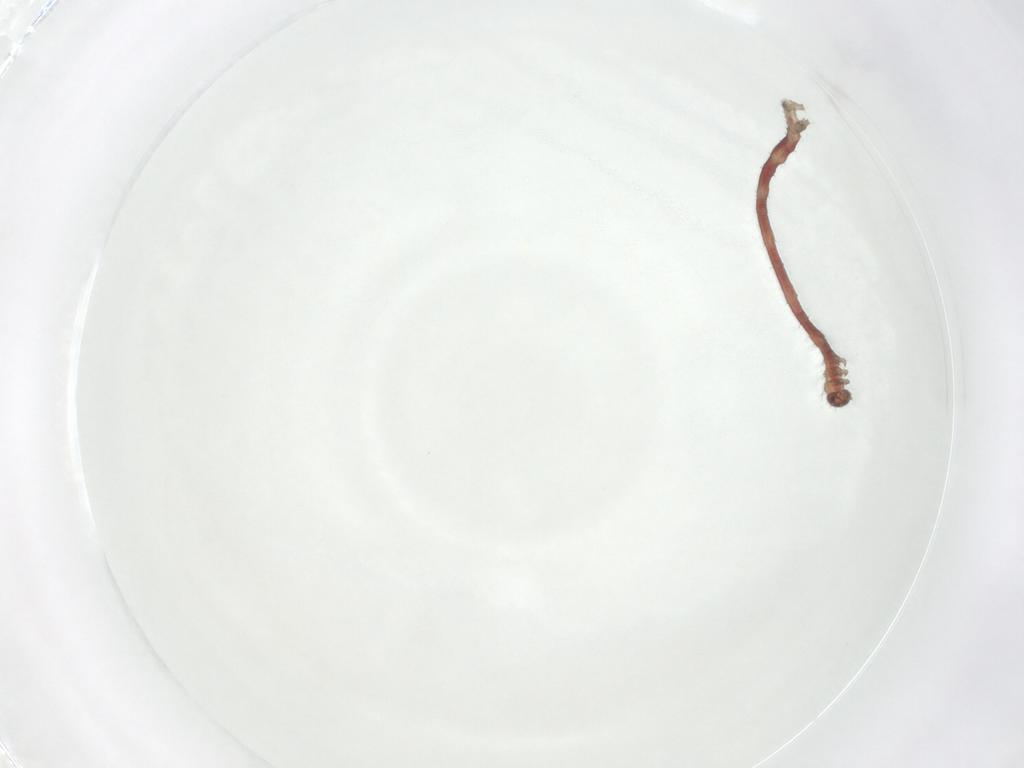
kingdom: Animalia
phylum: Arthropoda
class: Insecta
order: Lepidoptera
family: Geometridae
